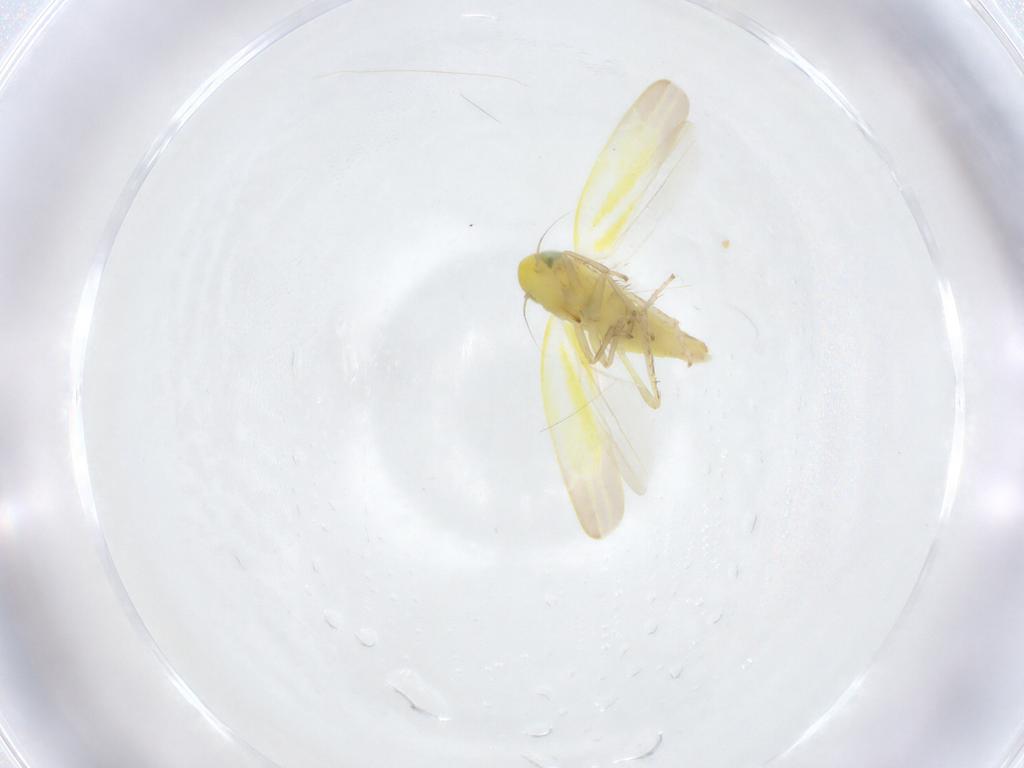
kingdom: Animalia
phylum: Arthropoda
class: Insecta
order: Hemiptera
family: Cicadellidae
